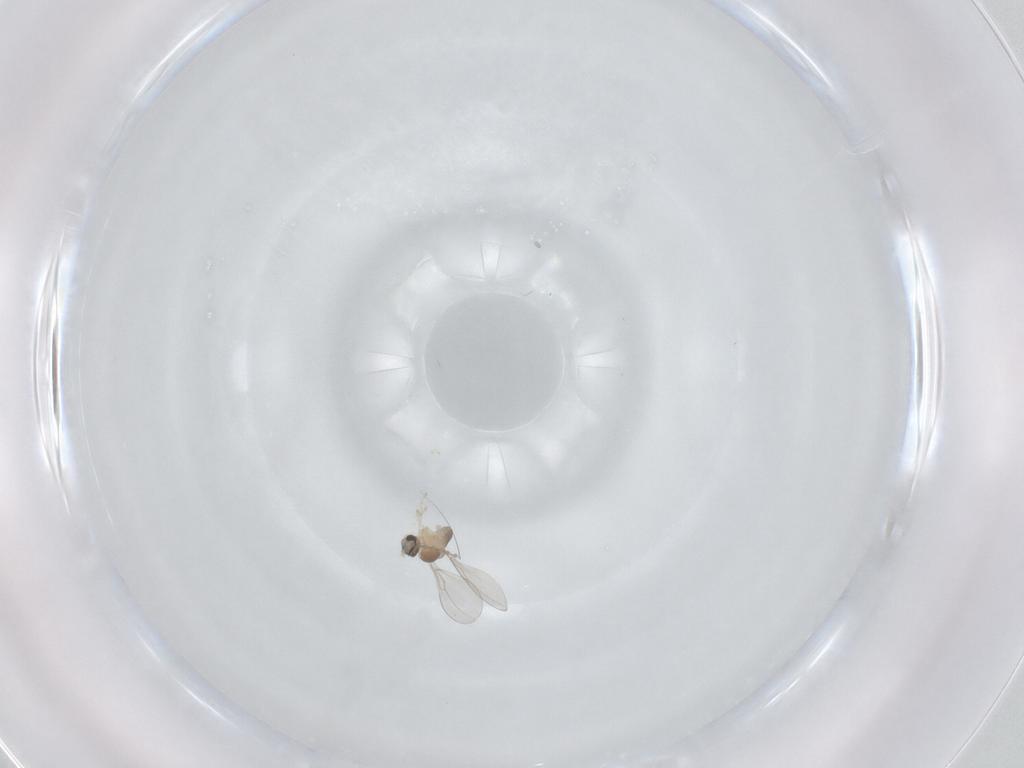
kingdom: Animalia
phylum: Arthropoda
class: Insecta
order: Diptera
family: Cecidomyiidae
